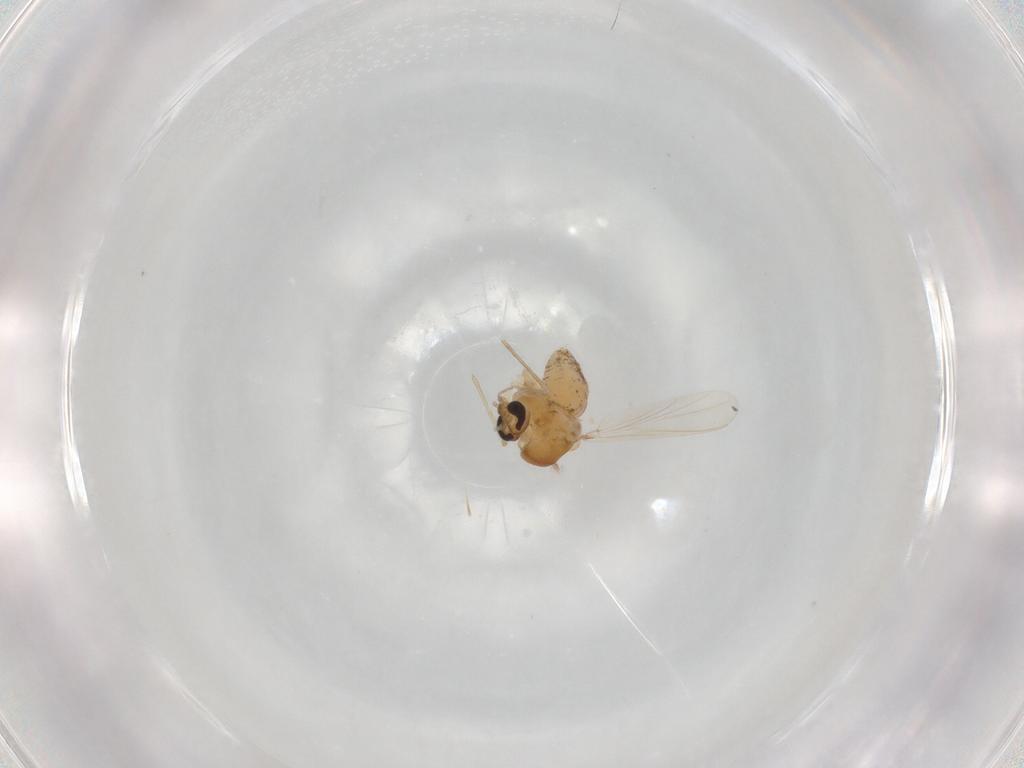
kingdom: Animalia
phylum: Arthropoda
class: Insecta
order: Diptera
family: Chironomidae
